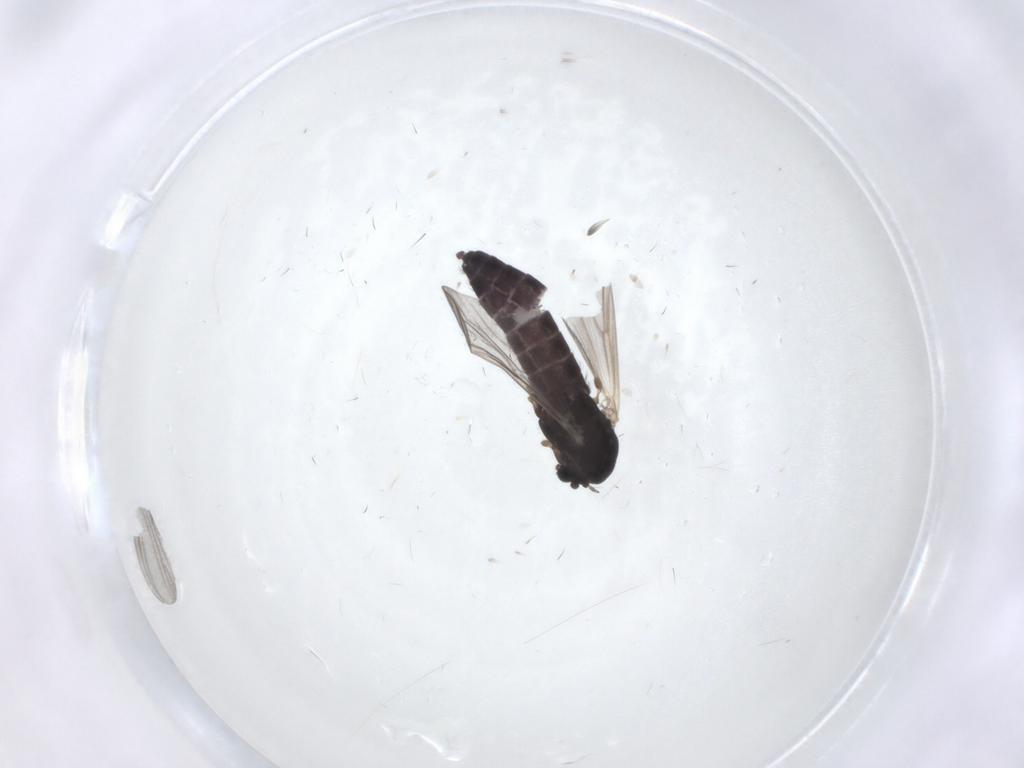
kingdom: Animalia
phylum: Arthropoda
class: Insecta
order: Diptera
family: Chironomidae
